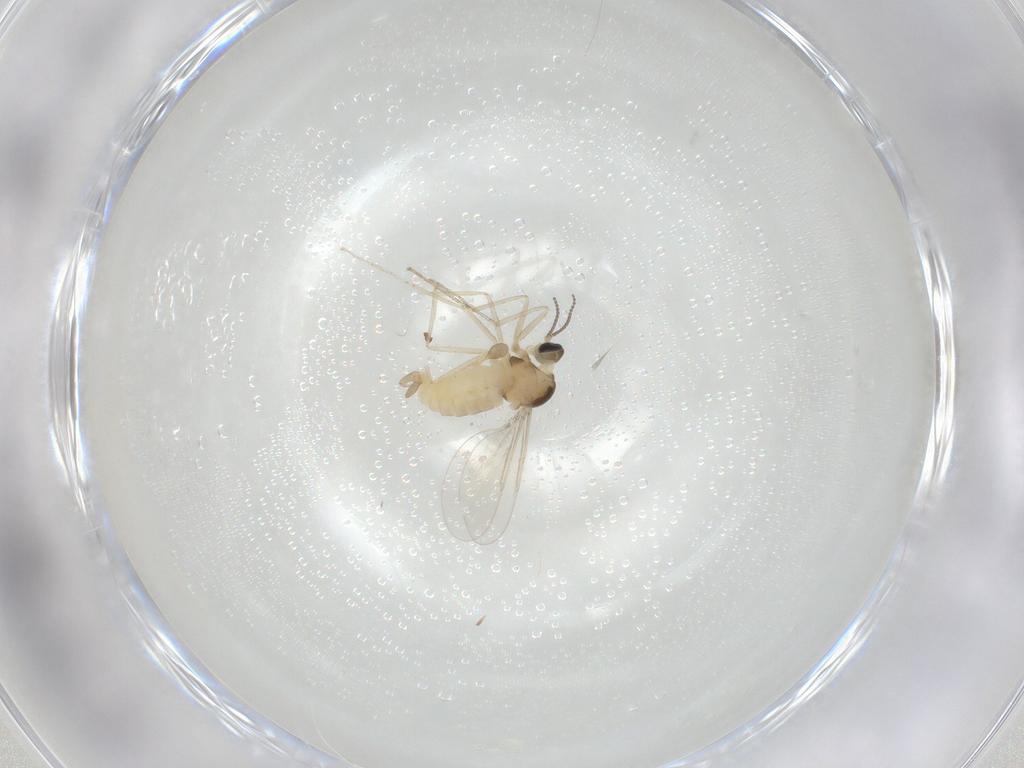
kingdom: Animalia
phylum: Arthropoda
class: Insecta
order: Diptera
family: Cecidomyiidae
